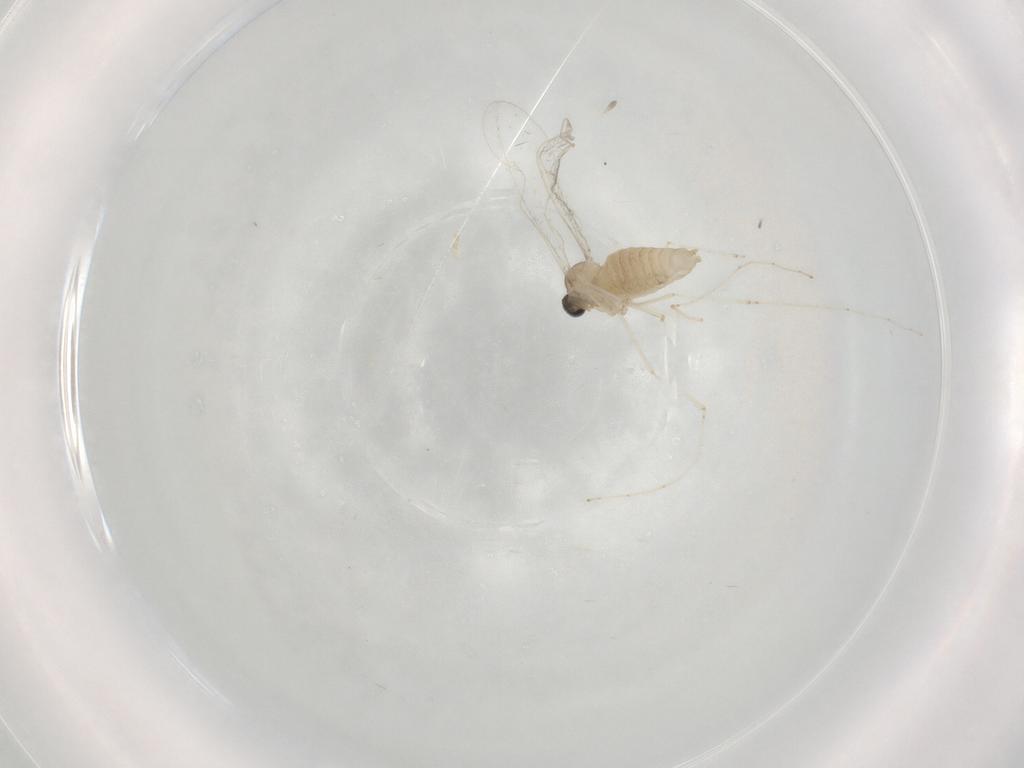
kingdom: Animalia
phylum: Arthropoda
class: Insecta
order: Diptera
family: Cecidomyiidae
